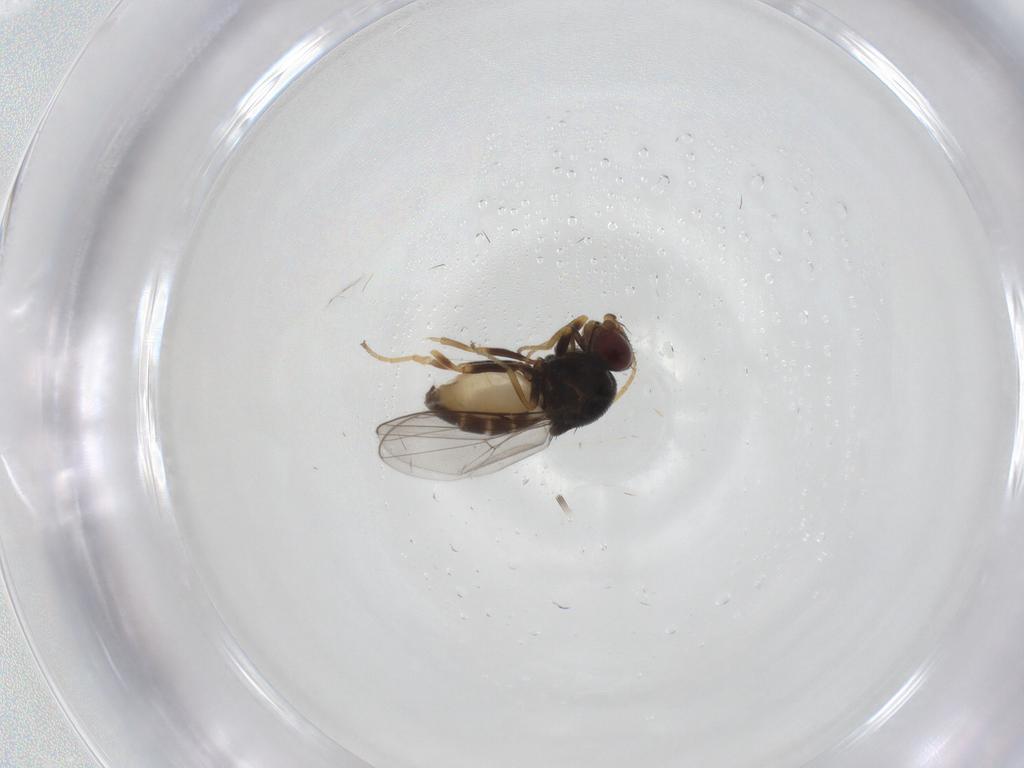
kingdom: Animalia
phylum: Arthropoda
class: Insecta
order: Diptera
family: Chloropidae
